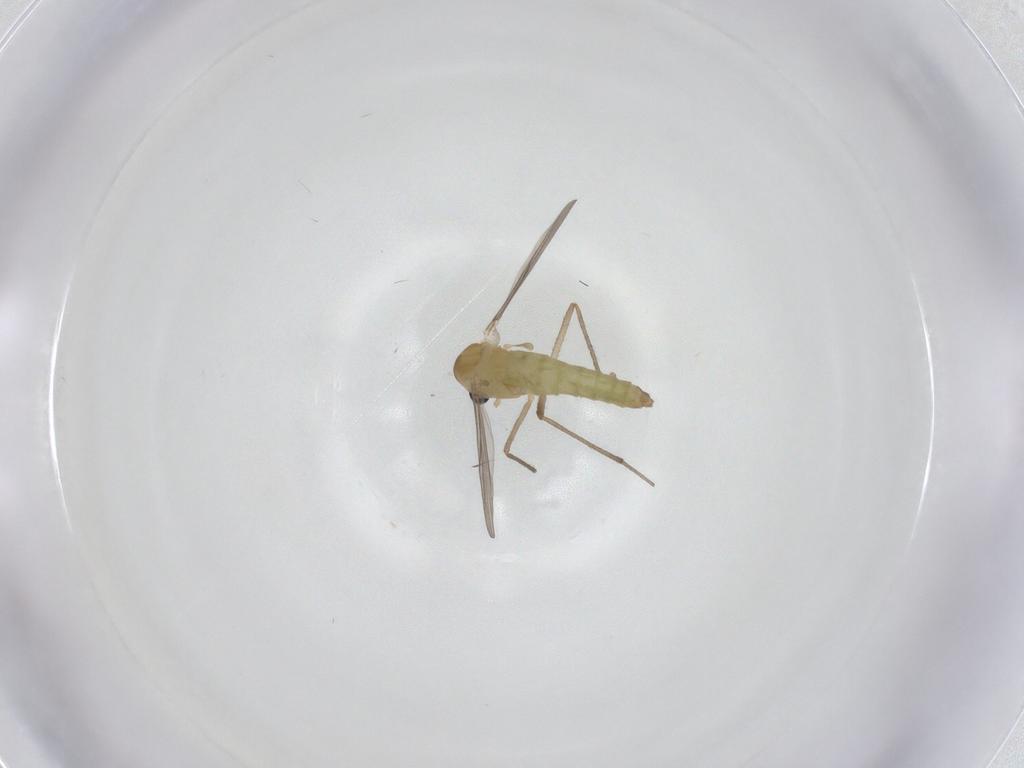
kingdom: Animalia
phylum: Arthropoda
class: Insecta
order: Diptera
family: Chironomidae
